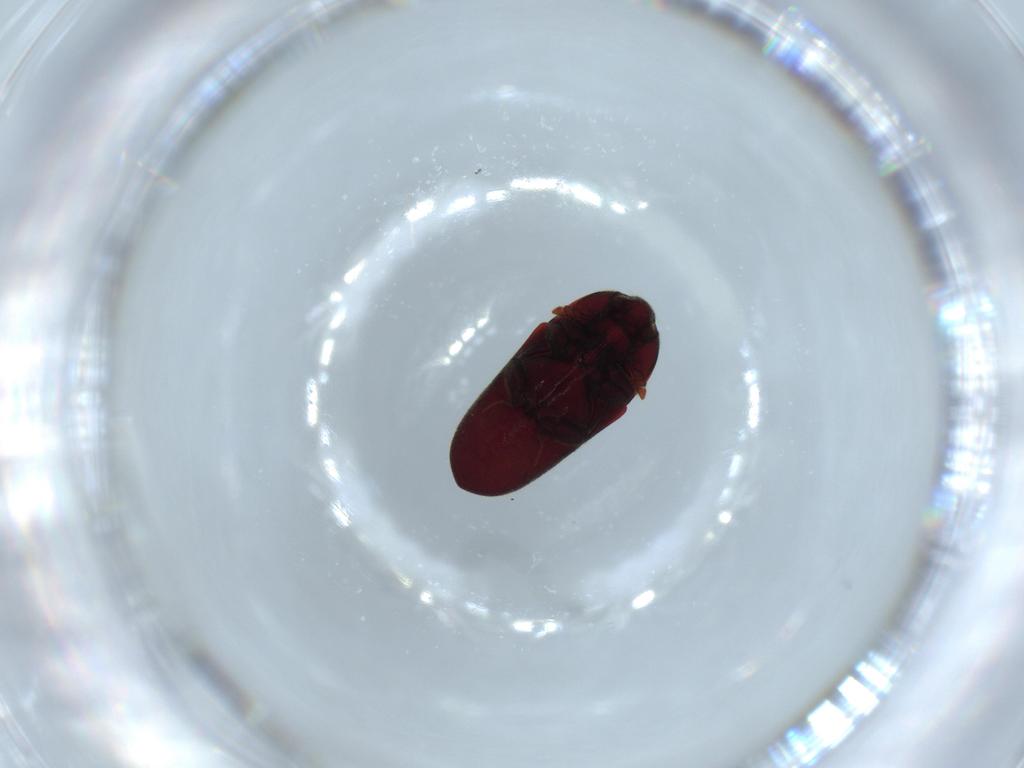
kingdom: Animalia
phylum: Arthropoda
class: Insecta
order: Coleoptera
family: Throscidae
